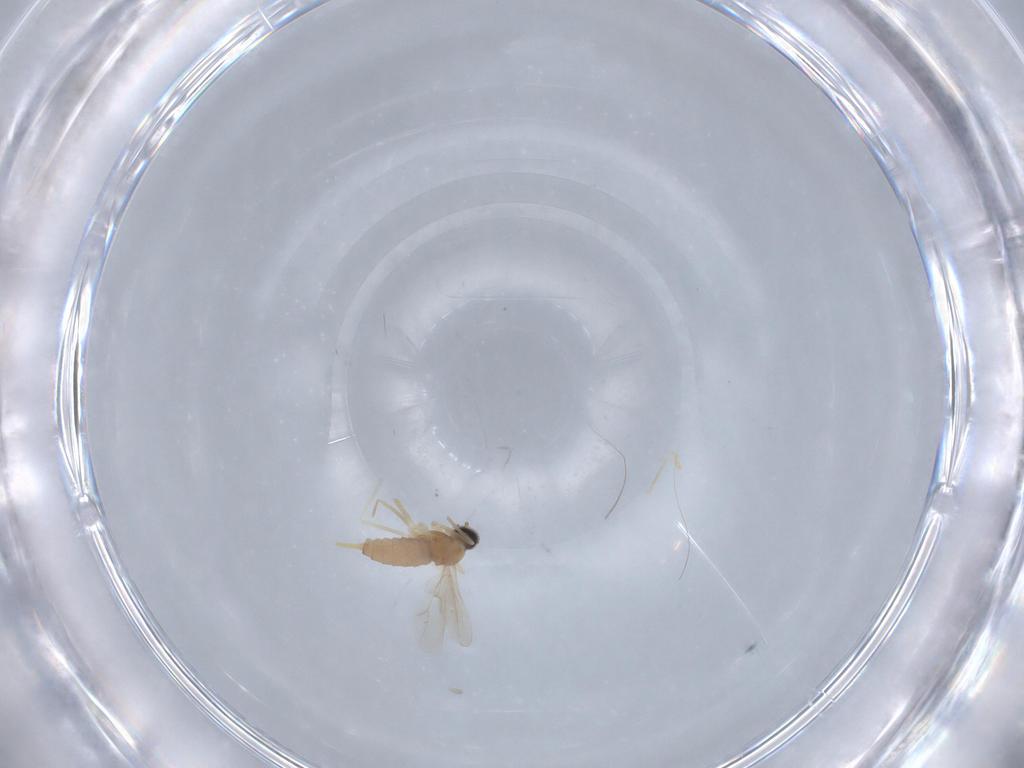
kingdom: Animalia
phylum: Arthropoda
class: Insecta
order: Diptera
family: Cecidomyiidae
